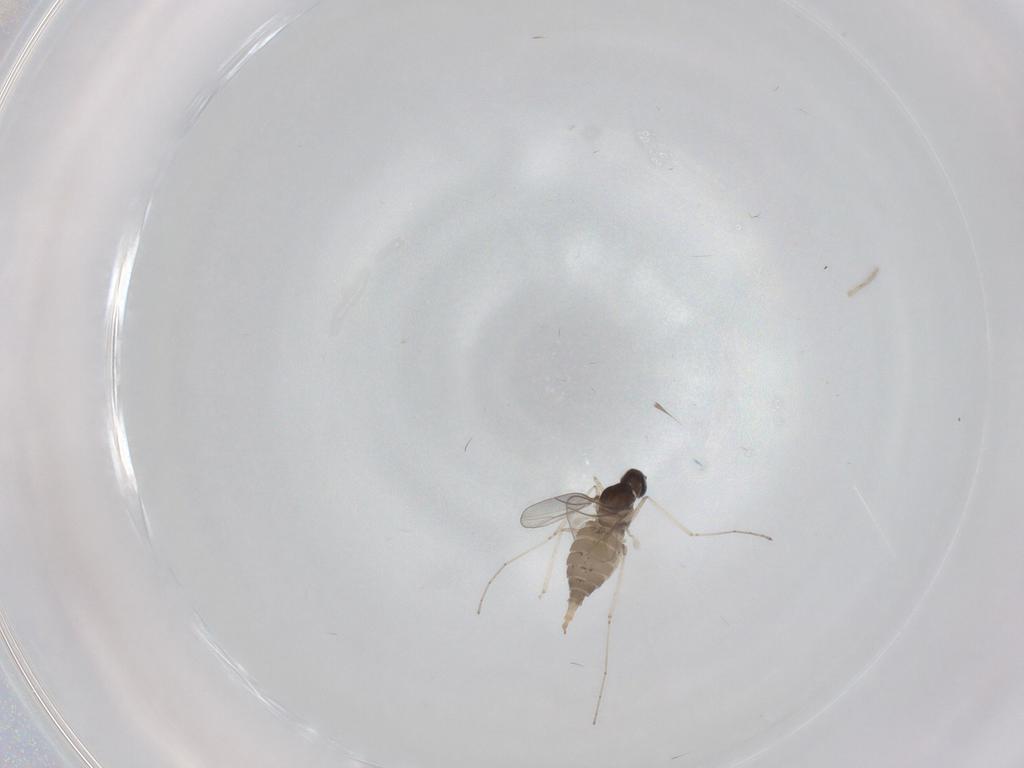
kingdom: Animalia
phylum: Arthropoda
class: Insecta
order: Diptera
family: Cecidomyiidae
